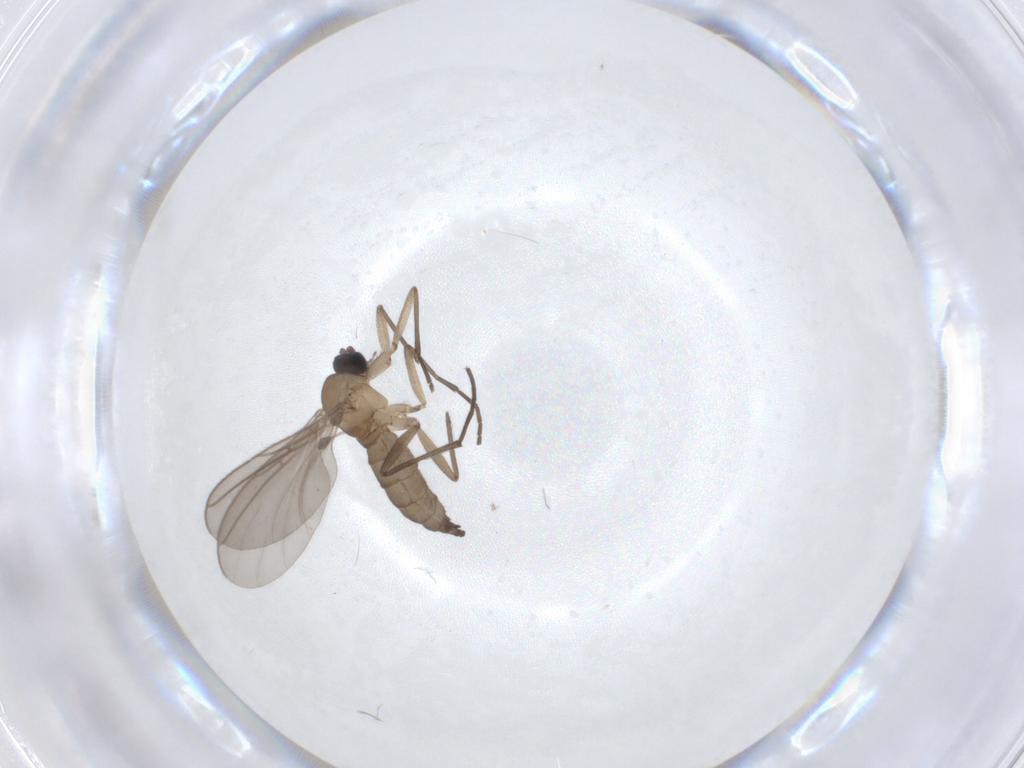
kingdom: Animalia
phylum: Arthropoda
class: Insecta
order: Diptera
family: Sciaridae
